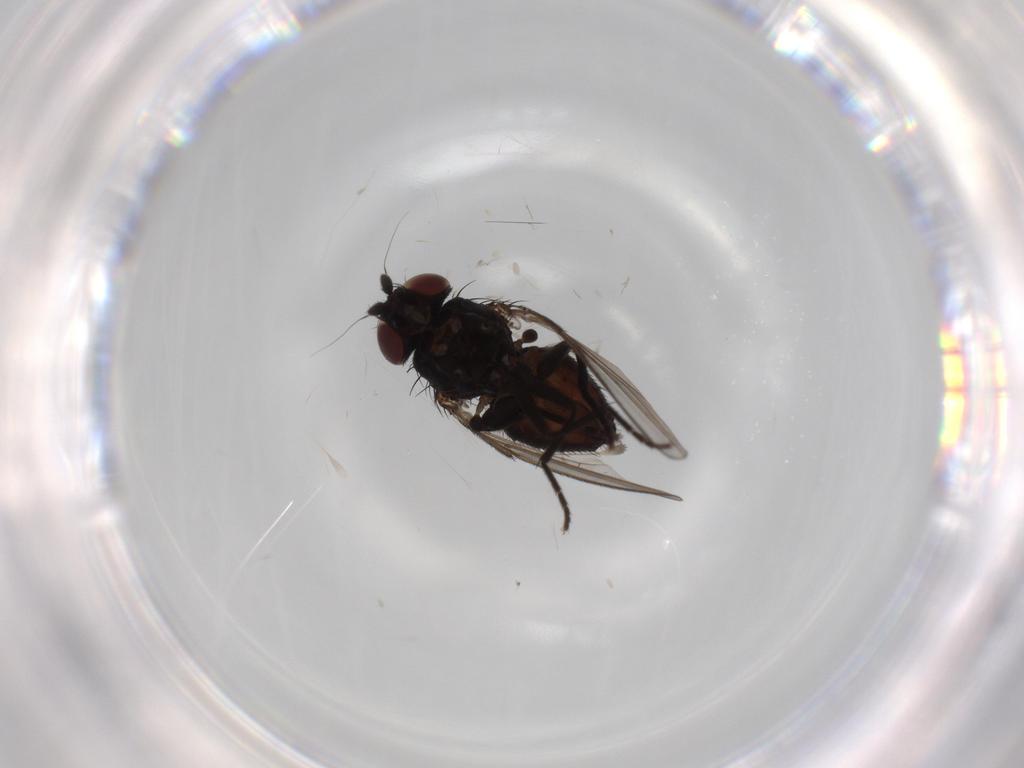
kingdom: Animalia
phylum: Arthropoda
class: Insecta
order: Diptera
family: Milichiidae
